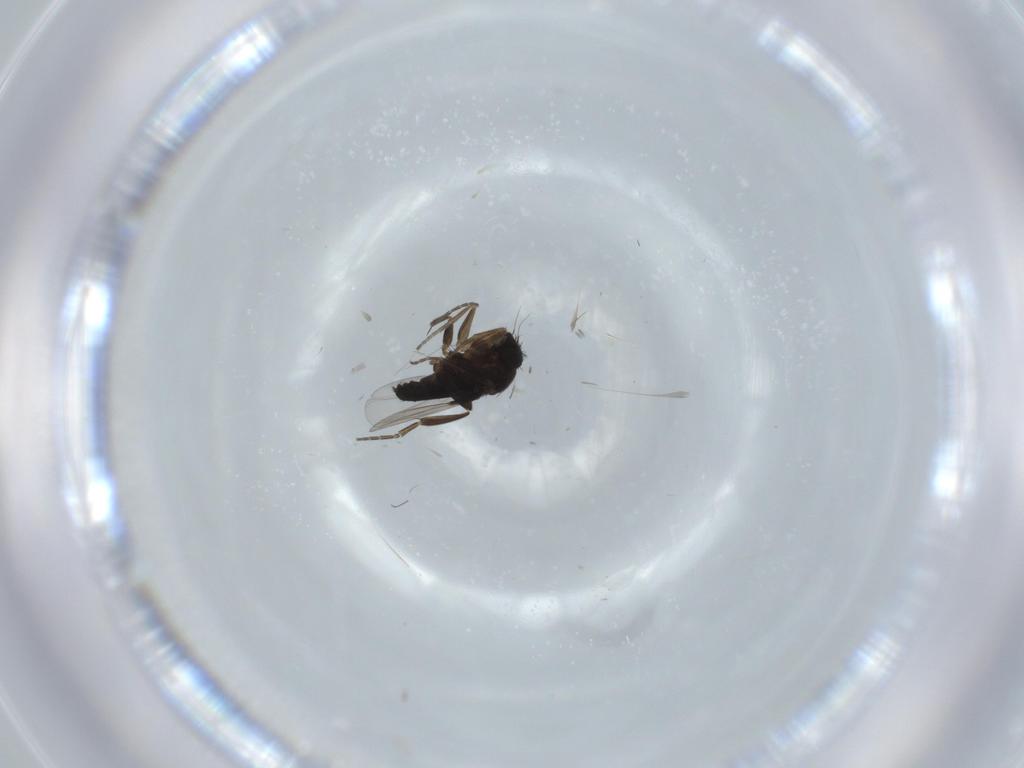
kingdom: Animalia
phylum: Arthropoda
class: Insecta
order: Diptera
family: Phoridae
